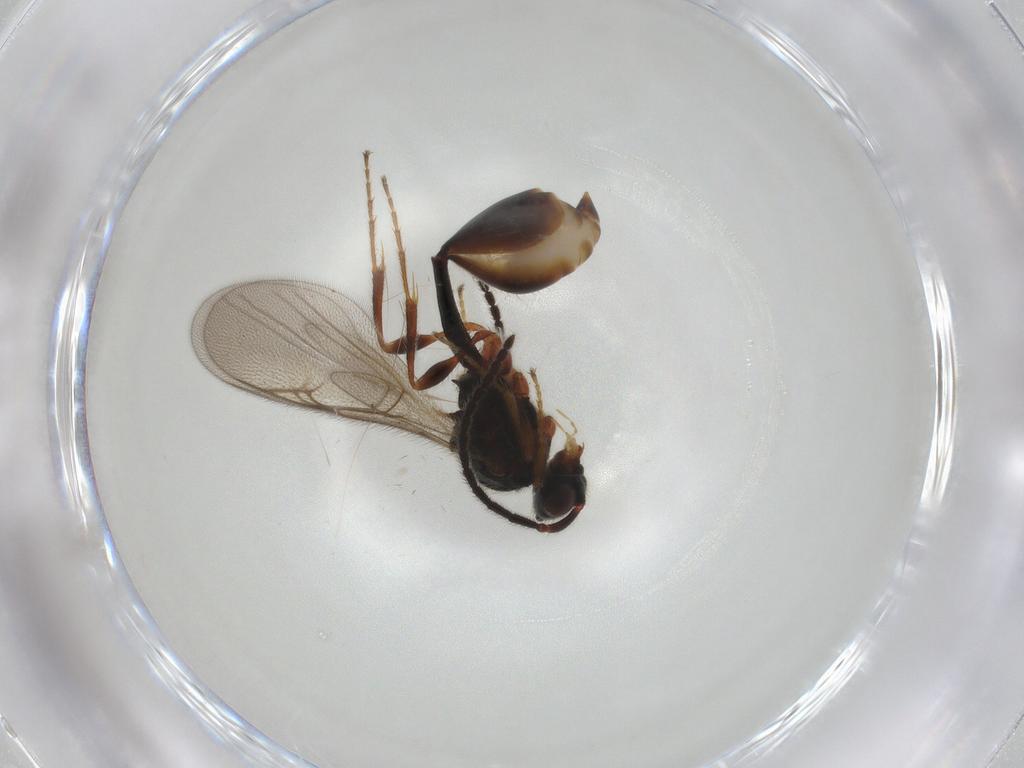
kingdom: Animalia
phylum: Arthropoda
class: Insecta
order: Hymenoptera
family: Diapriidae
